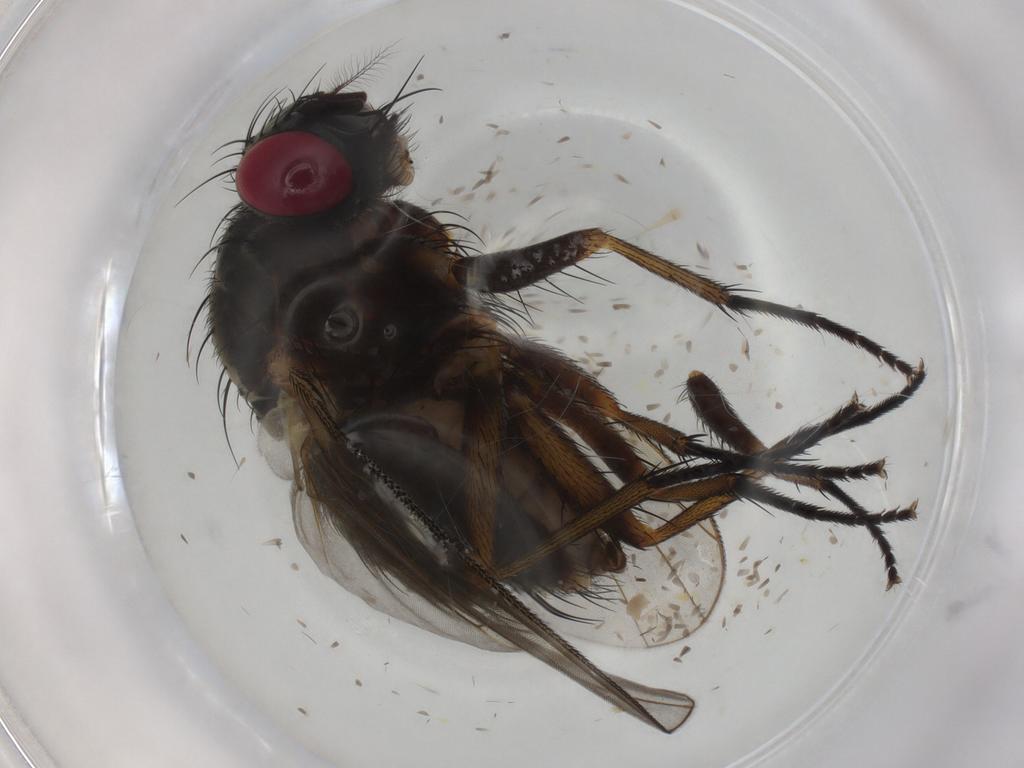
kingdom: Animalia
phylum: Arthropoda
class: Insecta
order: Diptera
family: Muscidae
